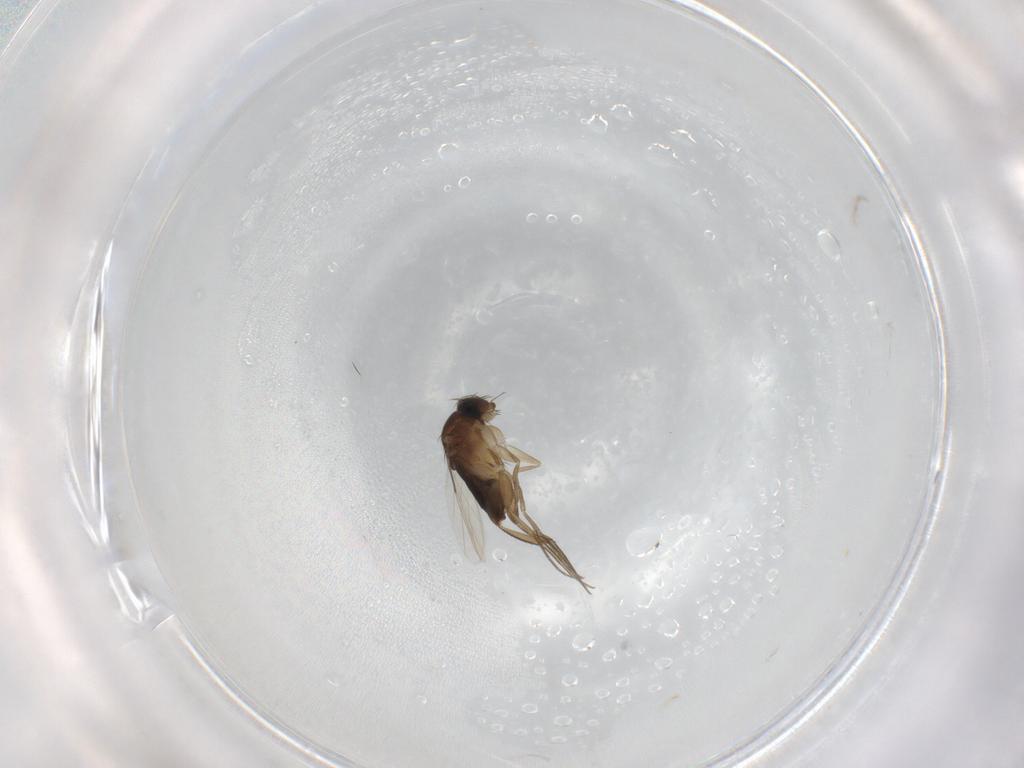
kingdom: Animalia
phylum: Arthropoda
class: Insecta
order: Diptera
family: Phoridae
